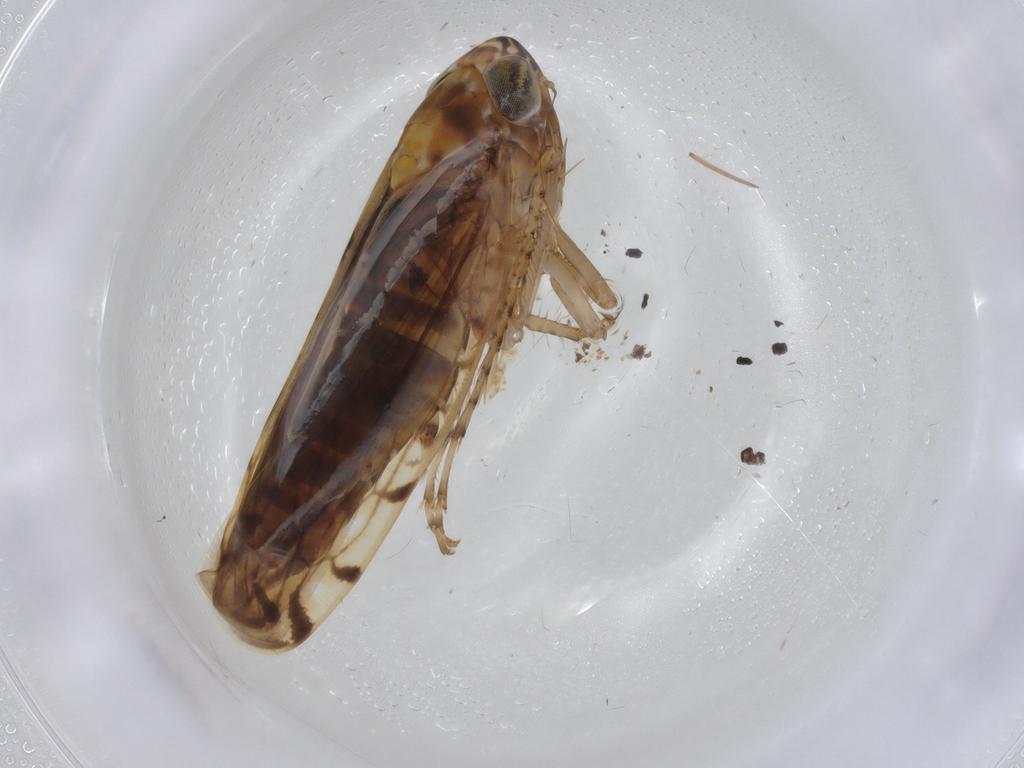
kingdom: Animalia
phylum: Arthropoda
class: Collembola
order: Entomobryomorpha
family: Entomobryidae
